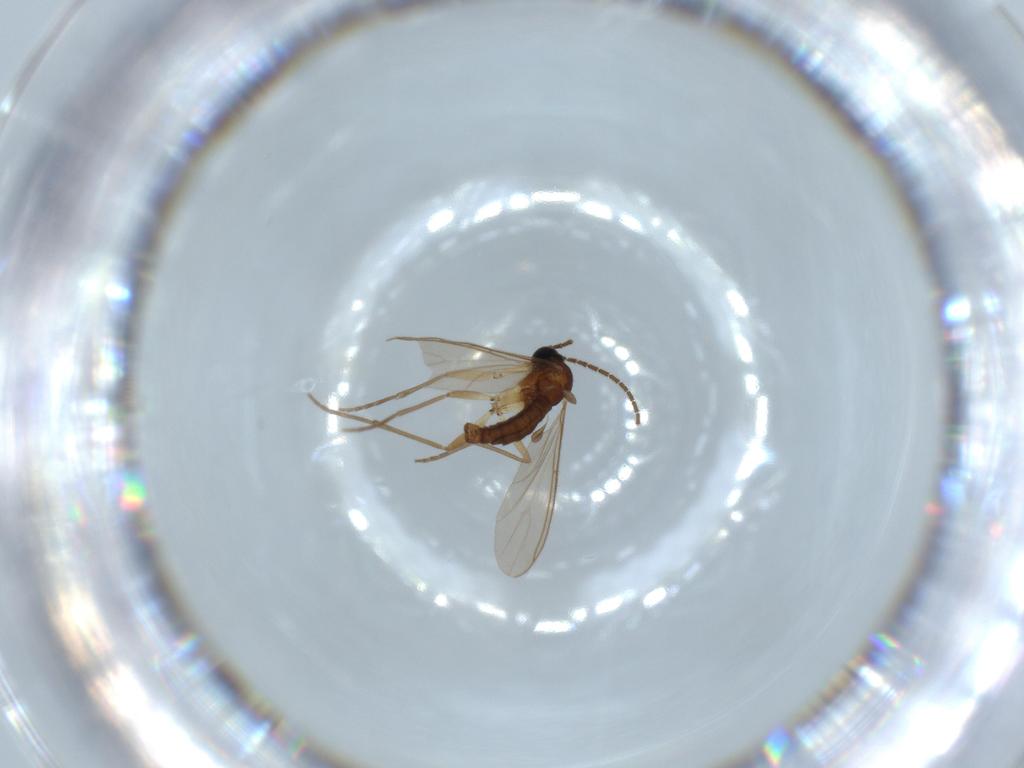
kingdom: Animalia
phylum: Arthropoda
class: Insecta
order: Diptera
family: Sciaridae
